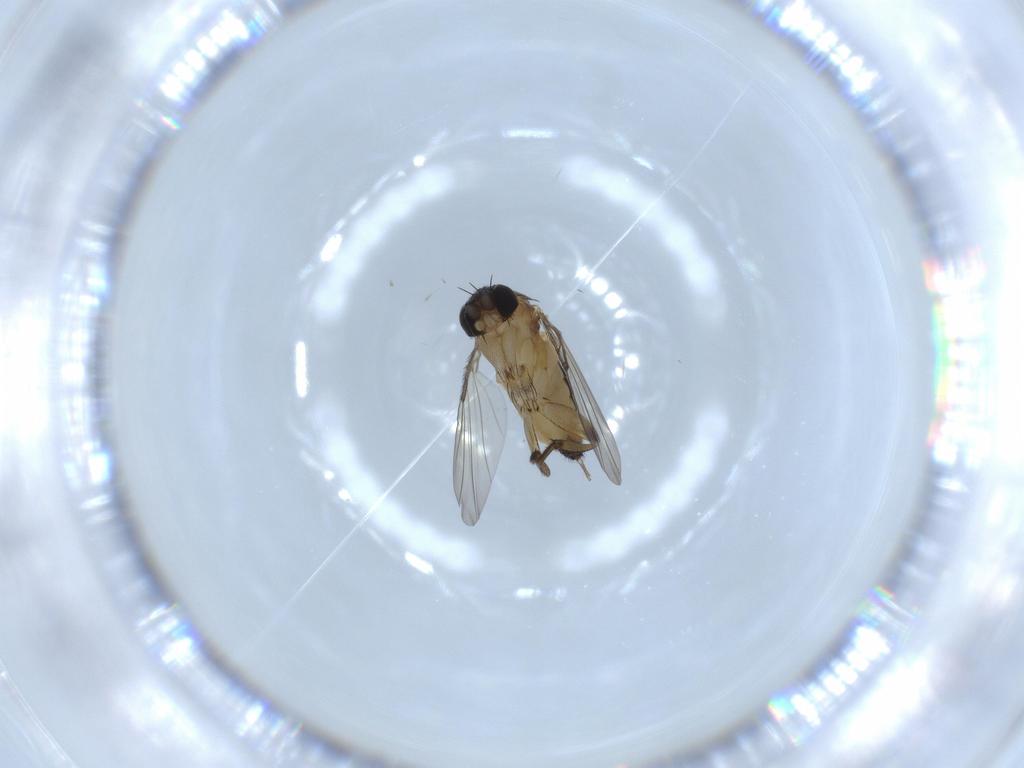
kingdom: Animalia
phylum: Arthropoda
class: Insecta
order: Diptera
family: Phoridae
